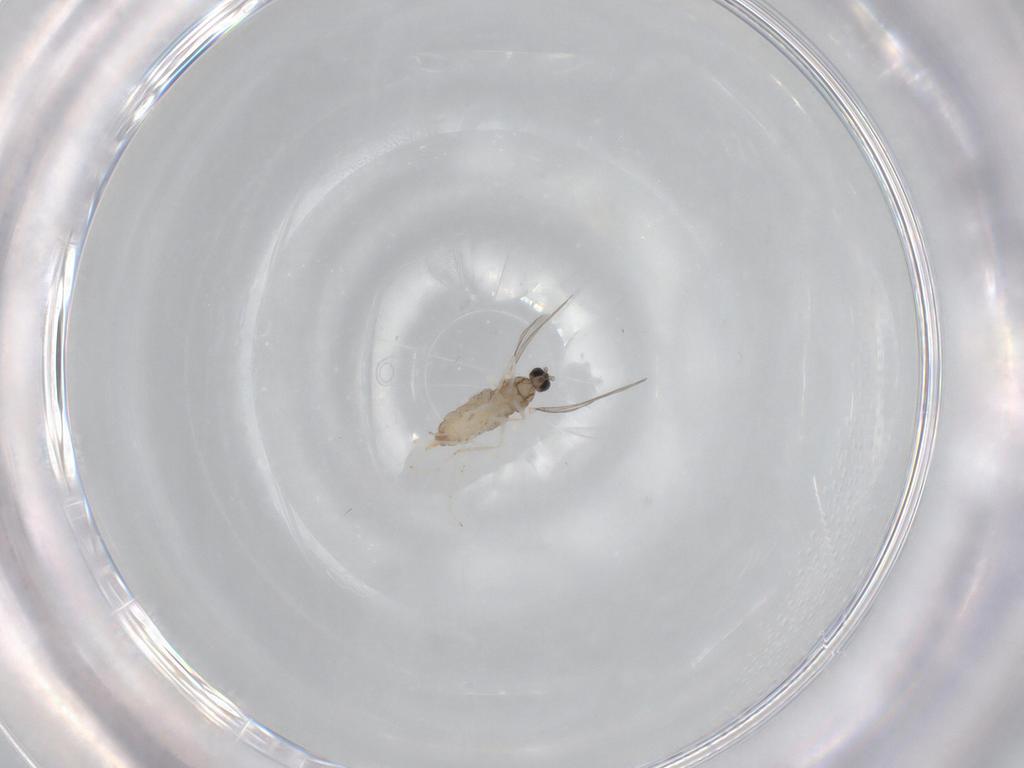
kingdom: Animalia
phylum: Arthropoda
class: Insecta
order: Diptera
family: Cecidomyiidae
